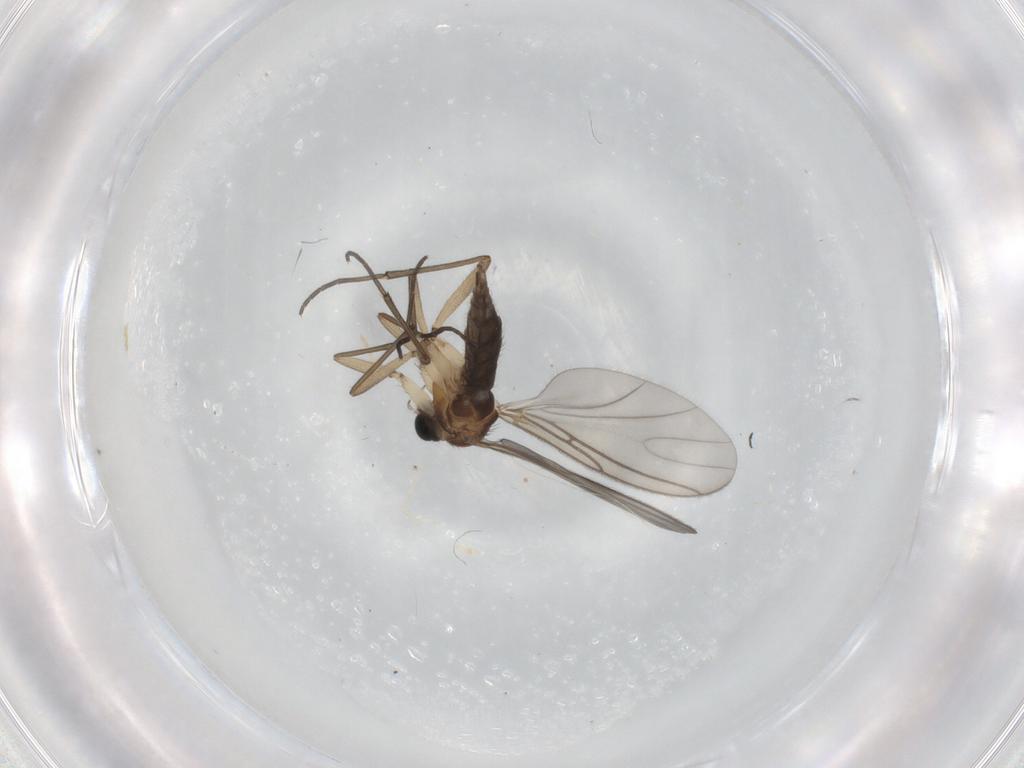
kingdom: Animalia
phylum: Arthropoda
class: Insecta
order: Diptera
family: Sciaridae
